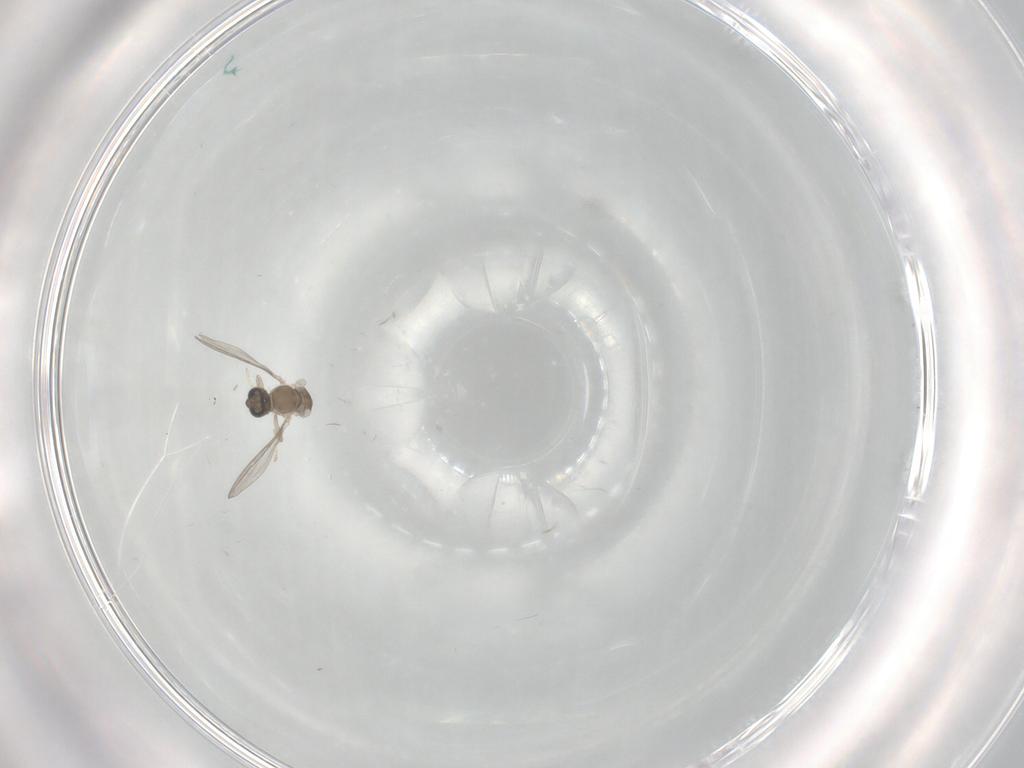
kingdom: Animalia
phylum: Arthropoda
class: Insecta
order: Diptera
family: Cecidomyiidae
